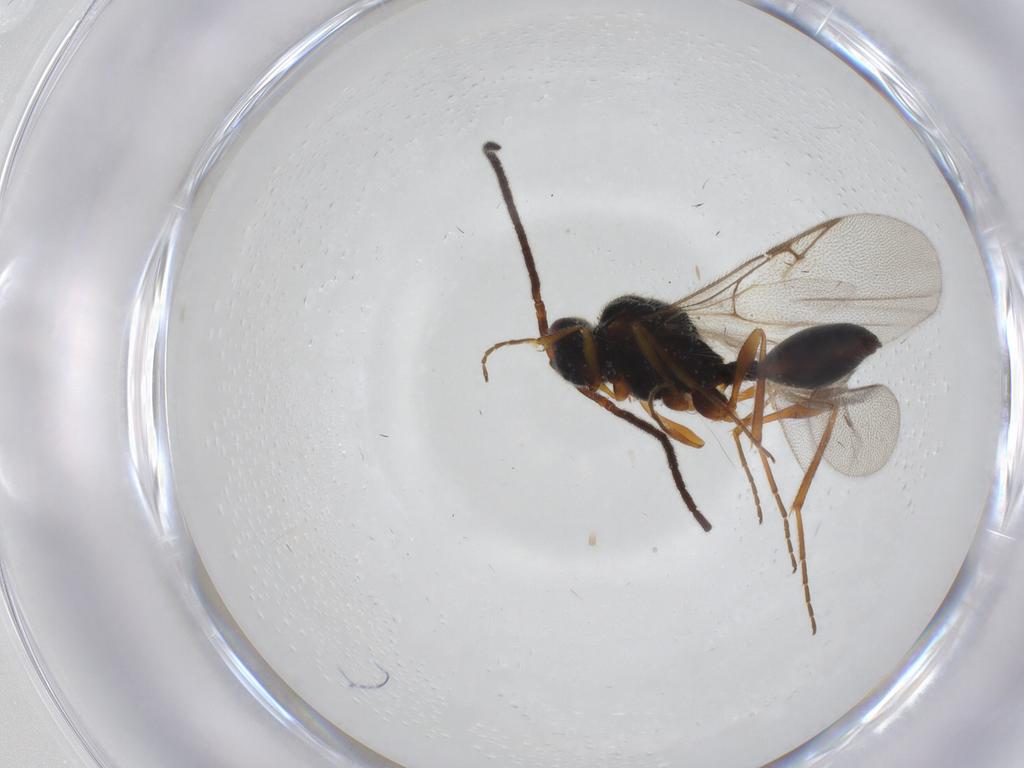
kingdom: Animalia
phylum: Arthropoda
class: Insecta
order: Hymenoptera
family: Diapriidae
